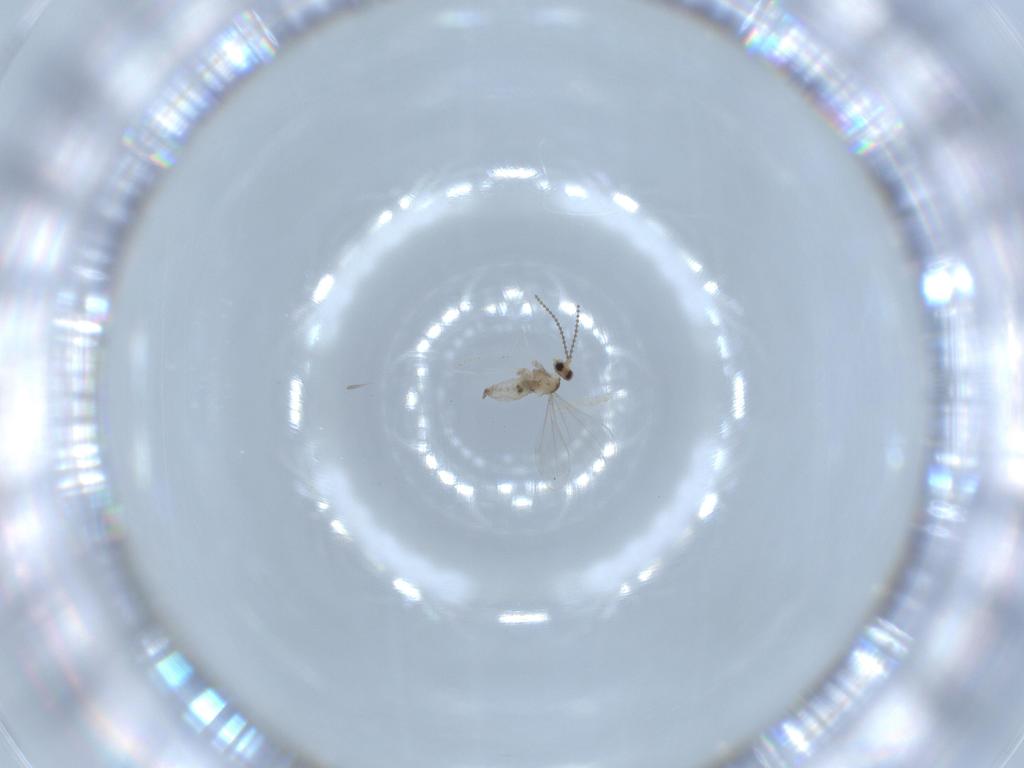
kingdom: Animalia
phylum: Arthropoda
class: Insecta
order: Diptera
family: Cecidomyiidae
